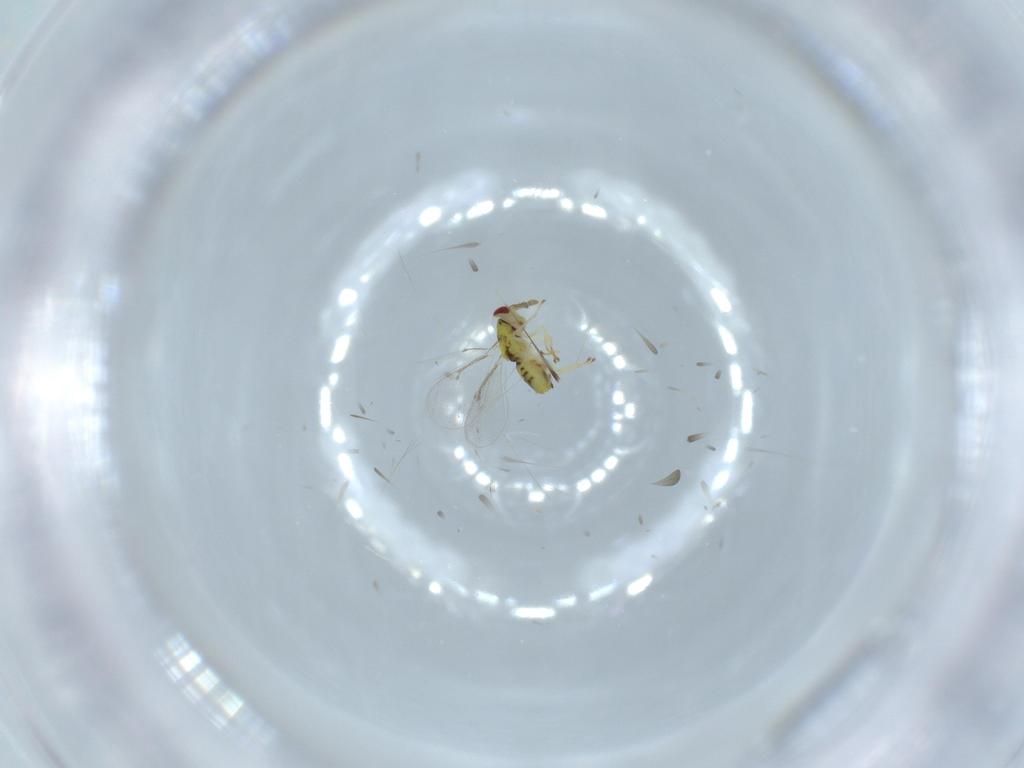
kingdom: Animalia
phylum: Arthropoda
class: Insecta
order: Hymenoptera
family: Eulophidae
